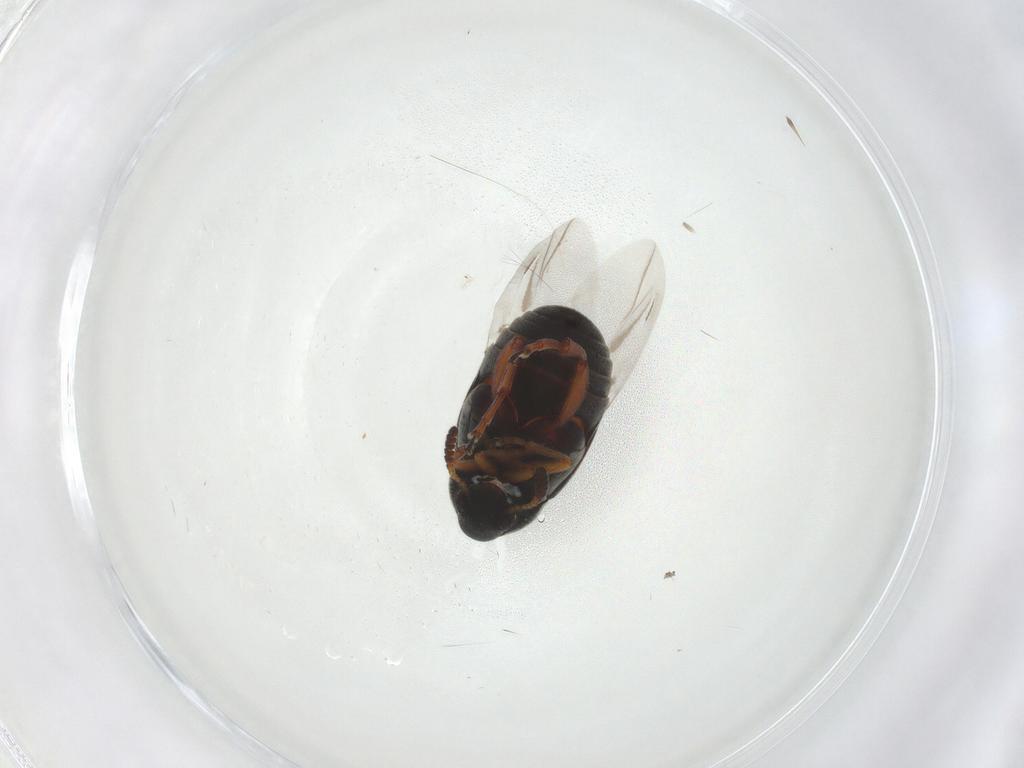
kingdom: Animalia
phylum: Arthropoda
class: Insecta
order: Coleoptera
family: Chrysomelidae
